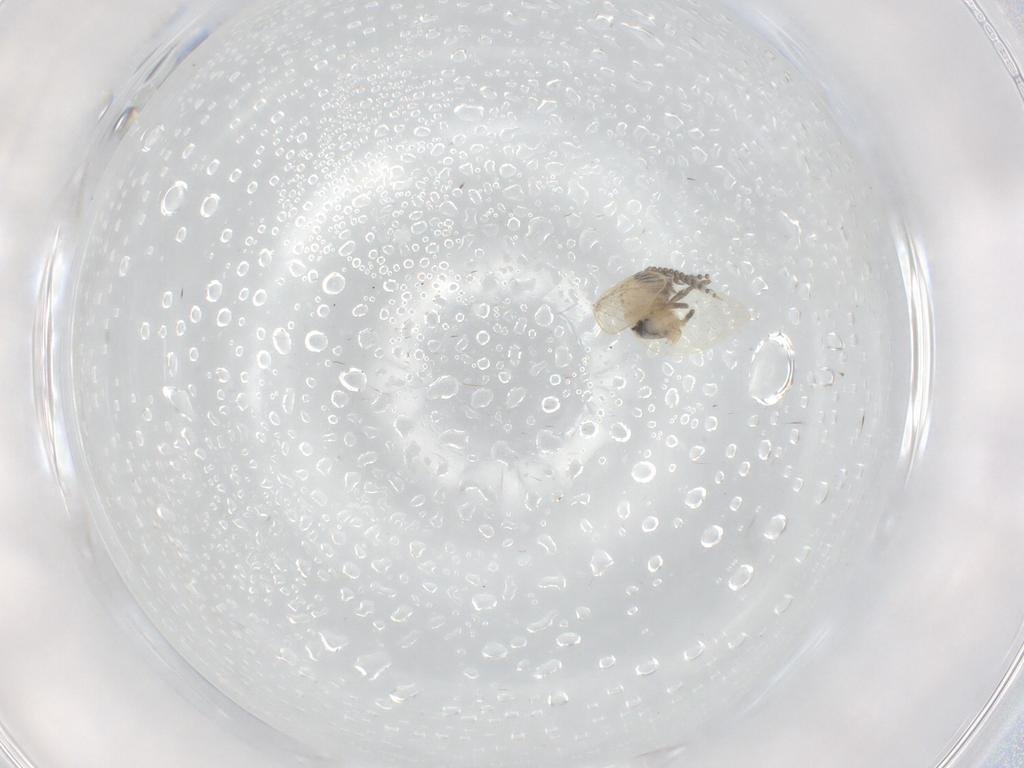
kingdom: Animalia
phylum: Arthropoda
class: Insecta
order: Diptera
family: Psychodidae
